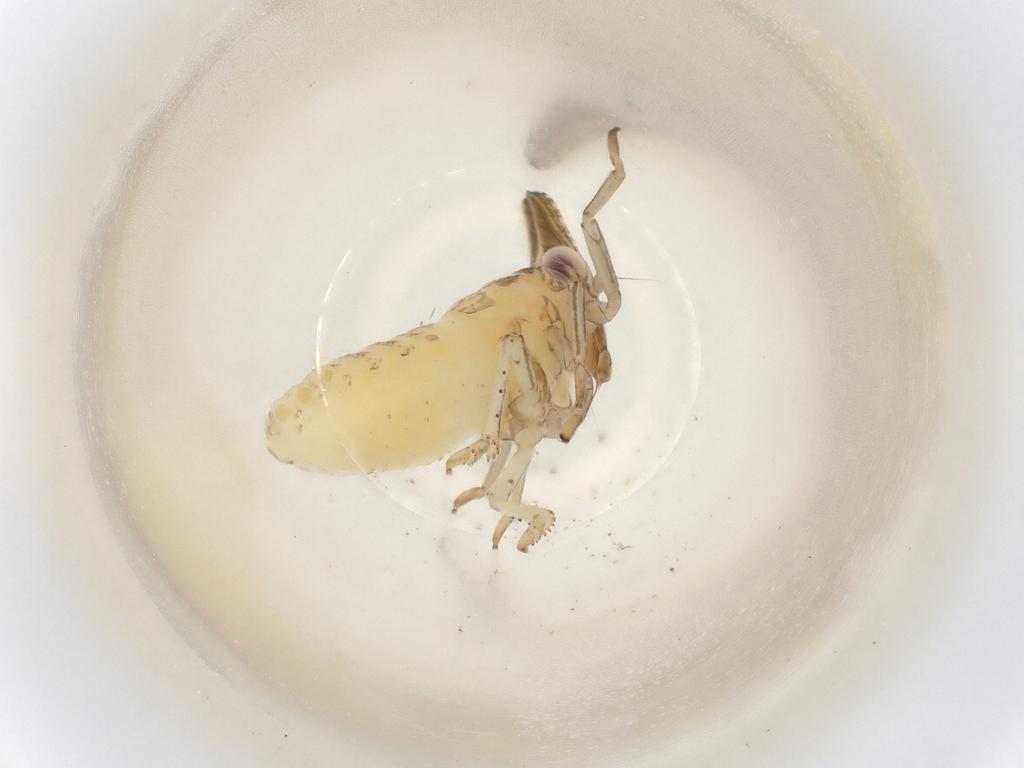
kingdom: Animalia
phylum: Arthropoda
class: Insecta
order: Hemiptera
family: Delphacidae
